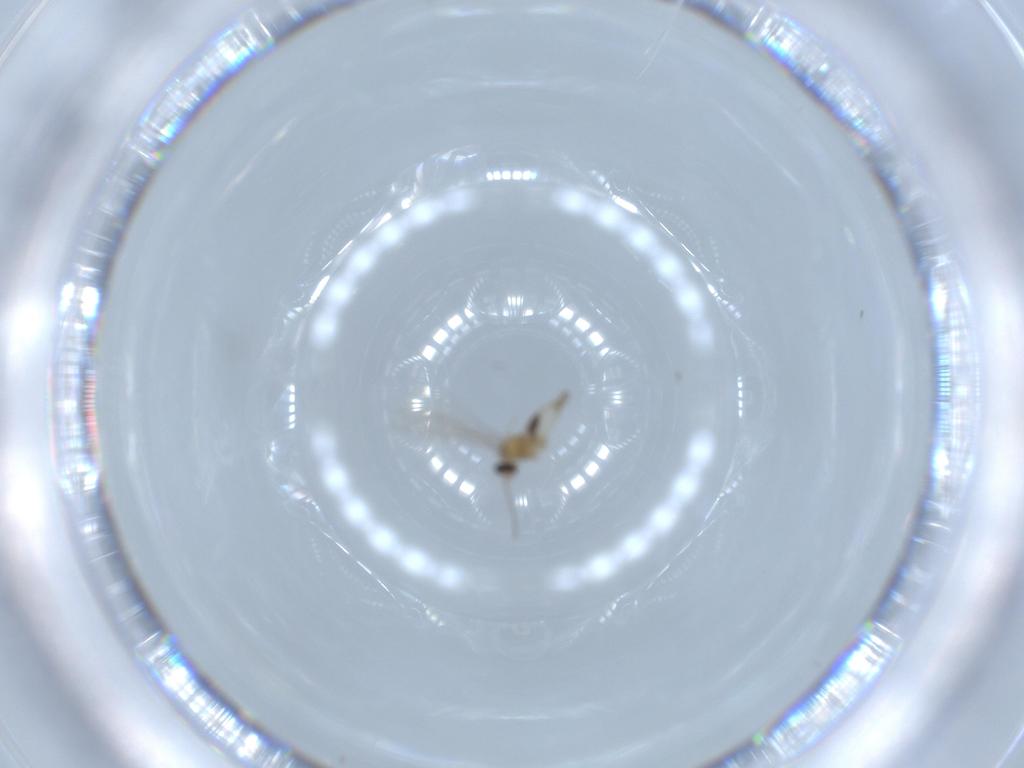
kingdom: Animalia
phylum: Arthropoda
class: Insecta
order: Diptera
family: Cecidomyiidae
